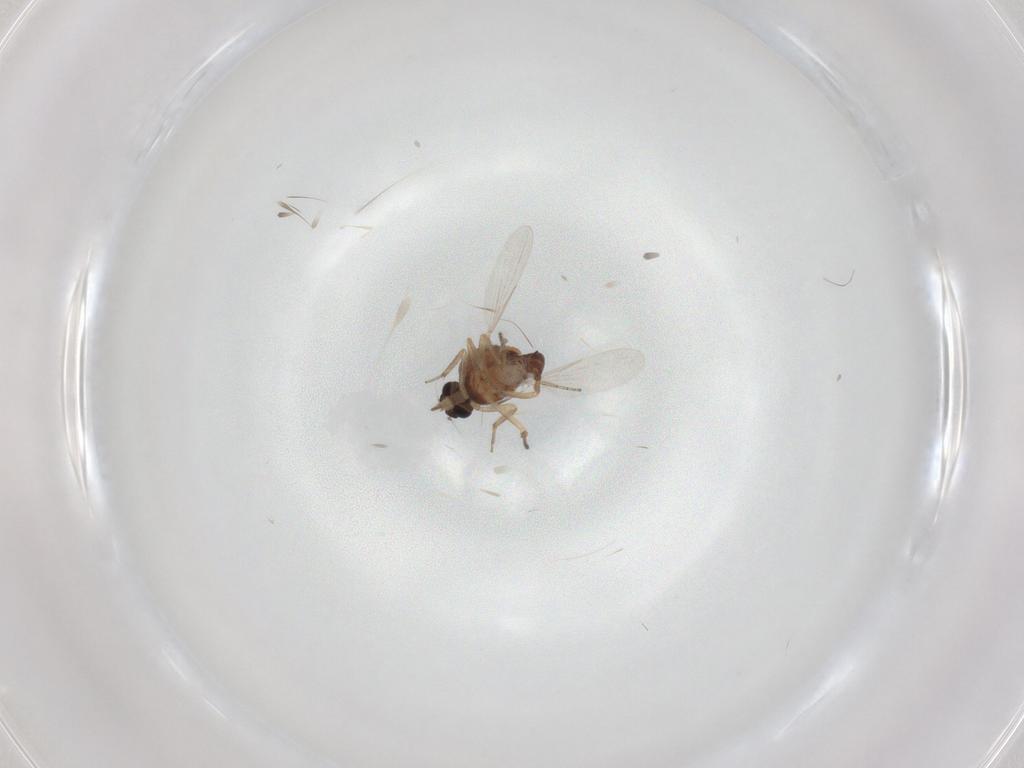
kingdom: Animalia
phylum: Arthropoda
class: Insecta
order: Diptera
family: Ceratopogonidae
